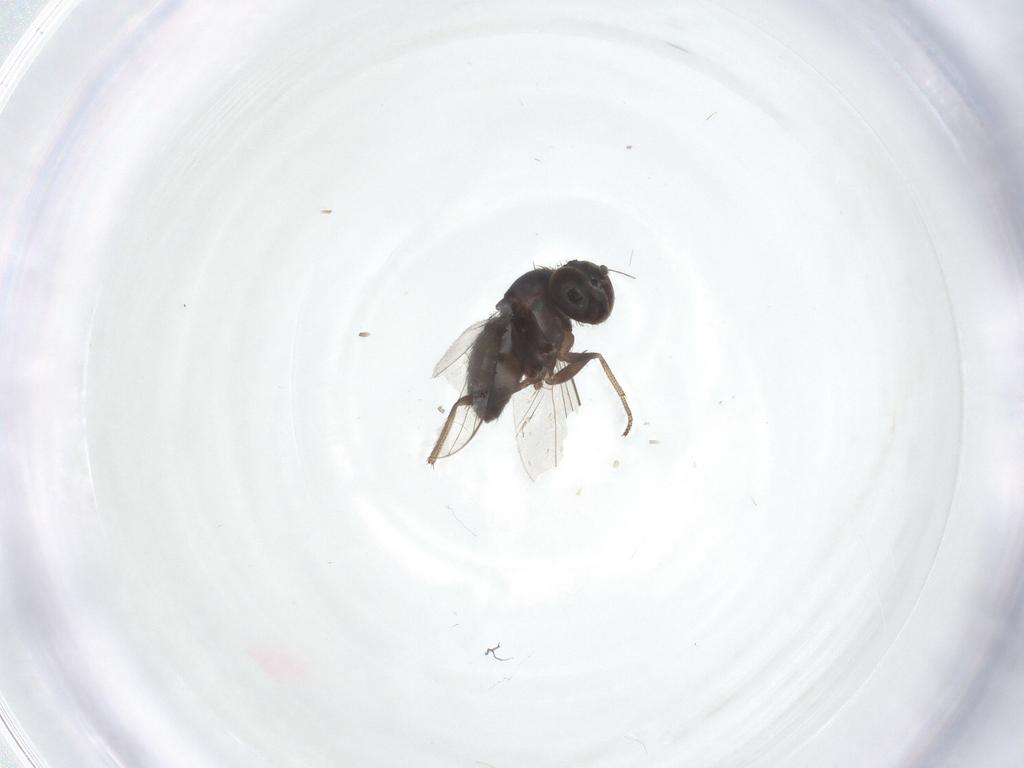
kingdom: Animalia
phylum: Arthropoda
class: Insecta
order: Diptera
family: Dolichopodidae
